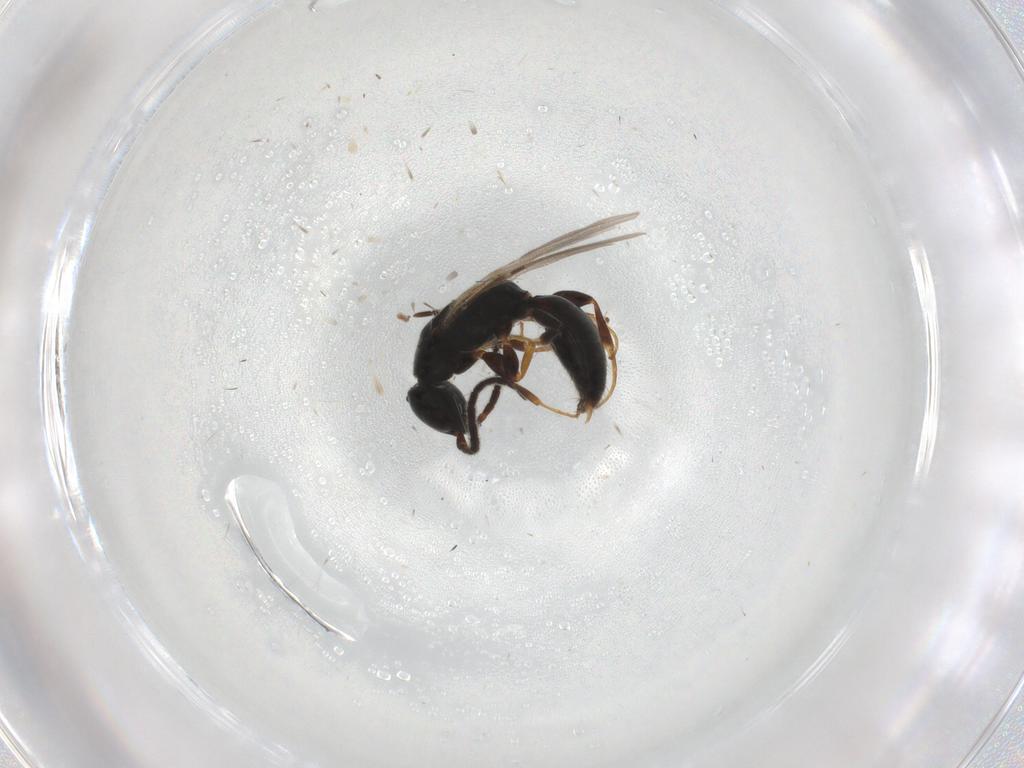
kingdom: Animalia
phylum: Arthropoda
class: Insecta
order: Hymenoptera
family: Bethylidae
